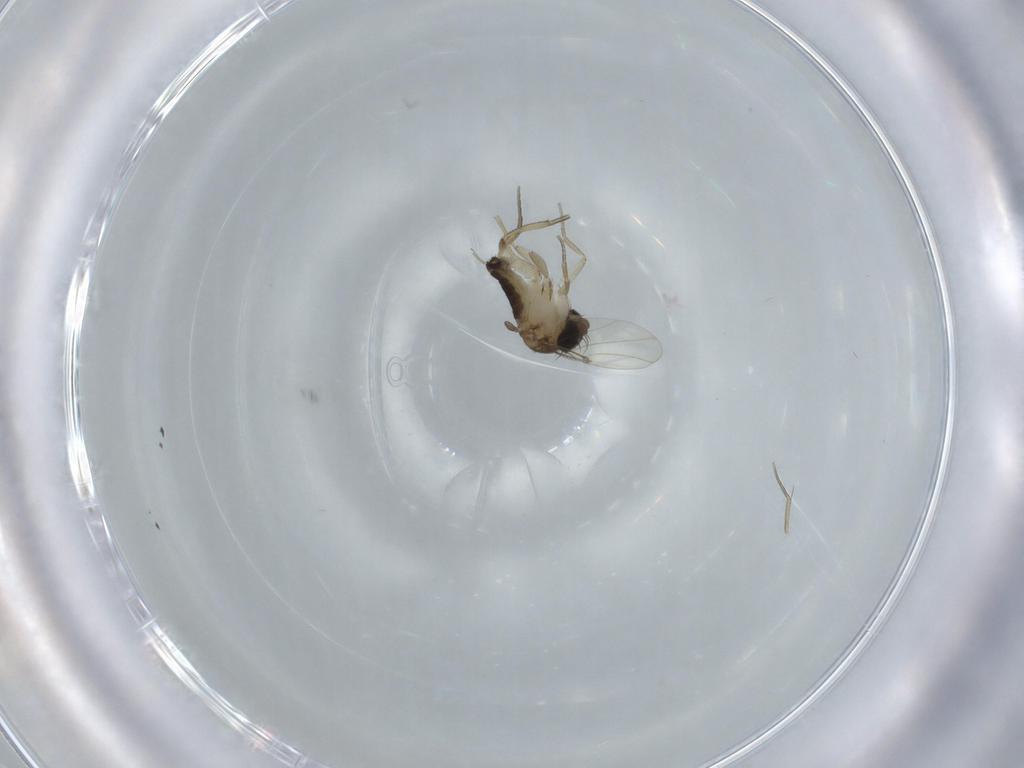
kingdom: Animalia
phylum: Arthropoda
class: Insecta
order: Diptera
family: Phoridae
